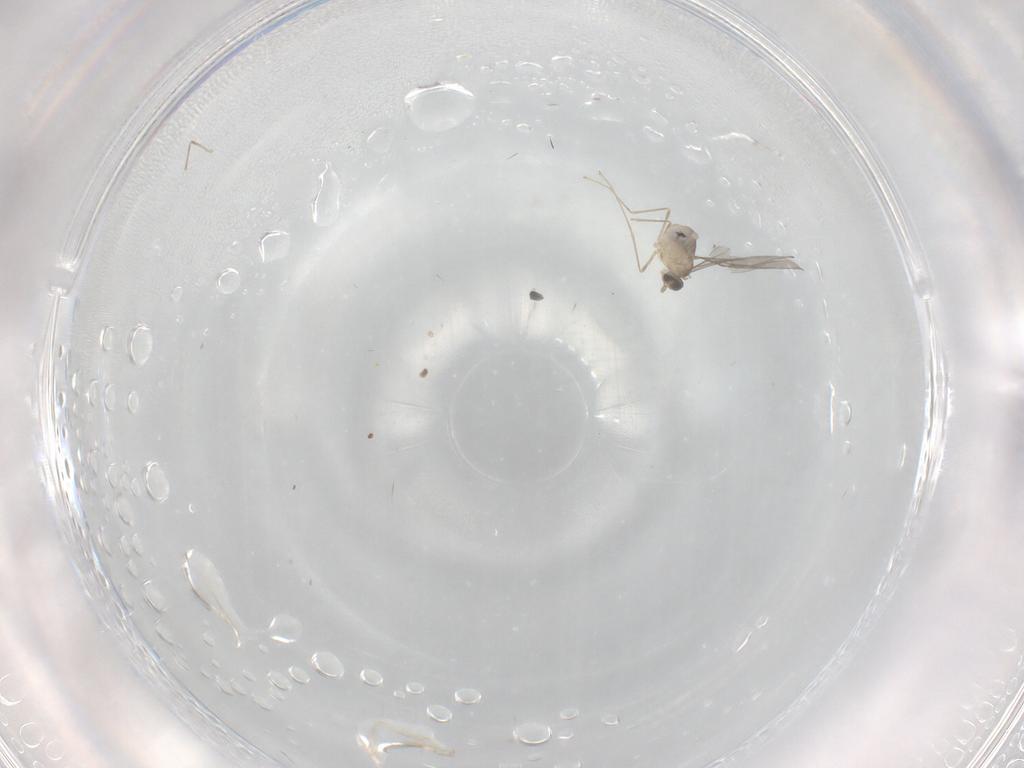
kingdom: Animalia
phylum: Arthropoda
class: Insecta
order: Diptera
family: Cecidomyiidae
